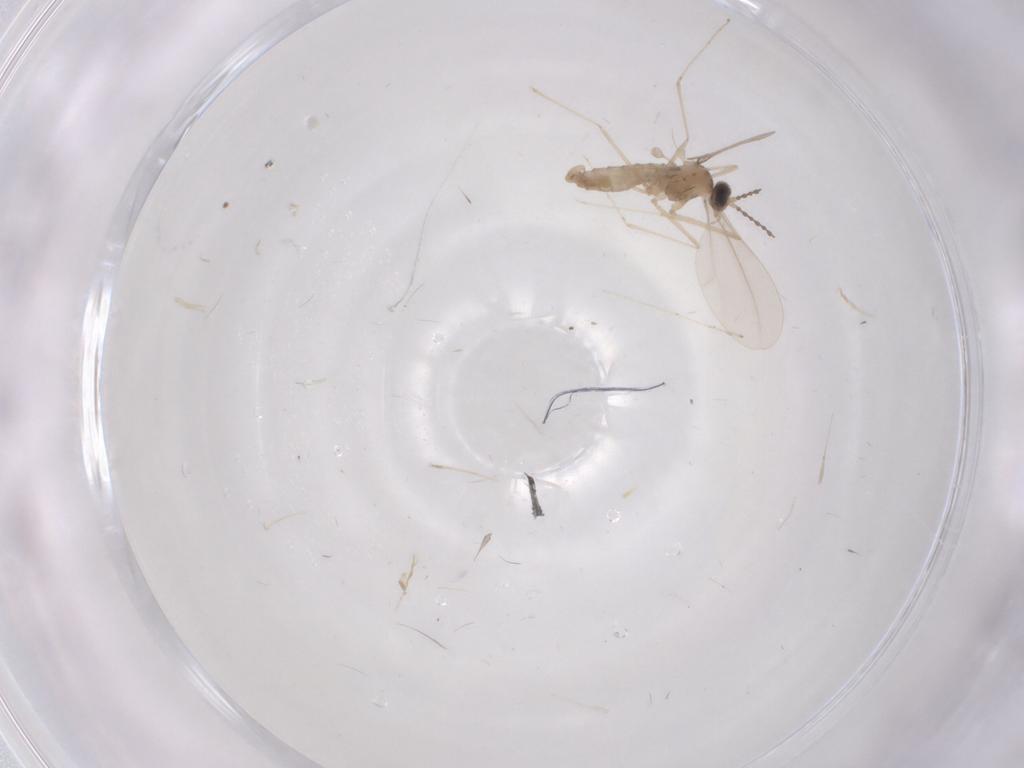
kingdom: Animalia
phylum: Arthropoda
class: Insecta
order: Diptera
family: Cecidomyiidae
